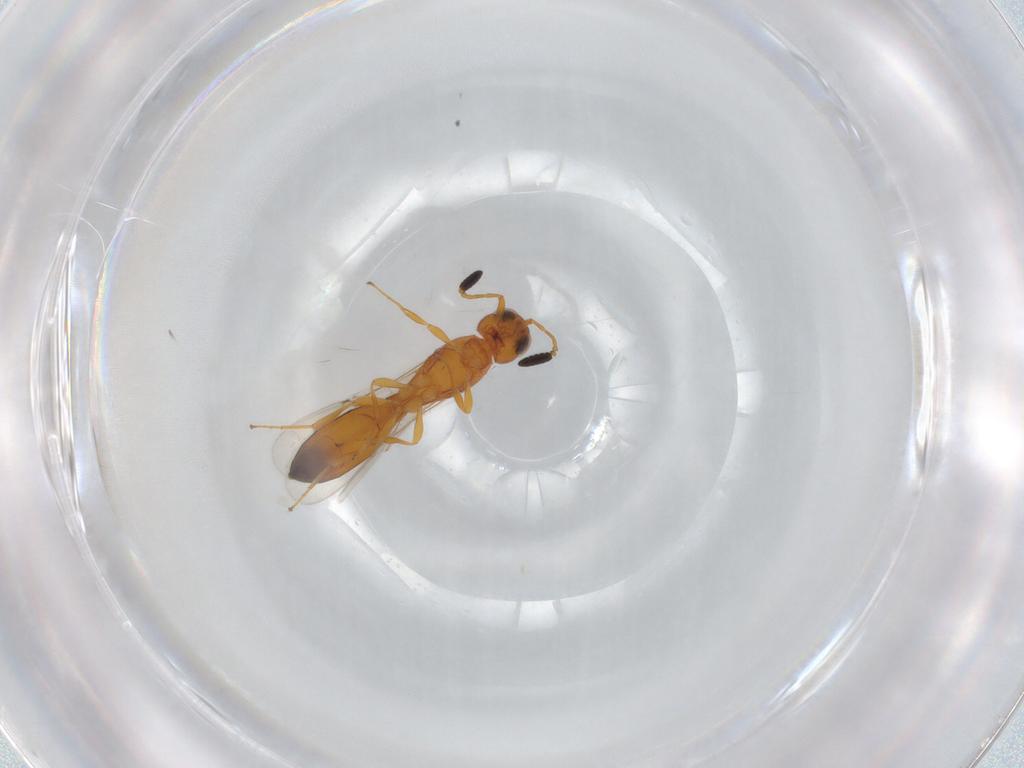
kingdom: Animalia
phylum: Arthropoda
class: Insecta
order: Hymenoptera
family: Scelionidae
